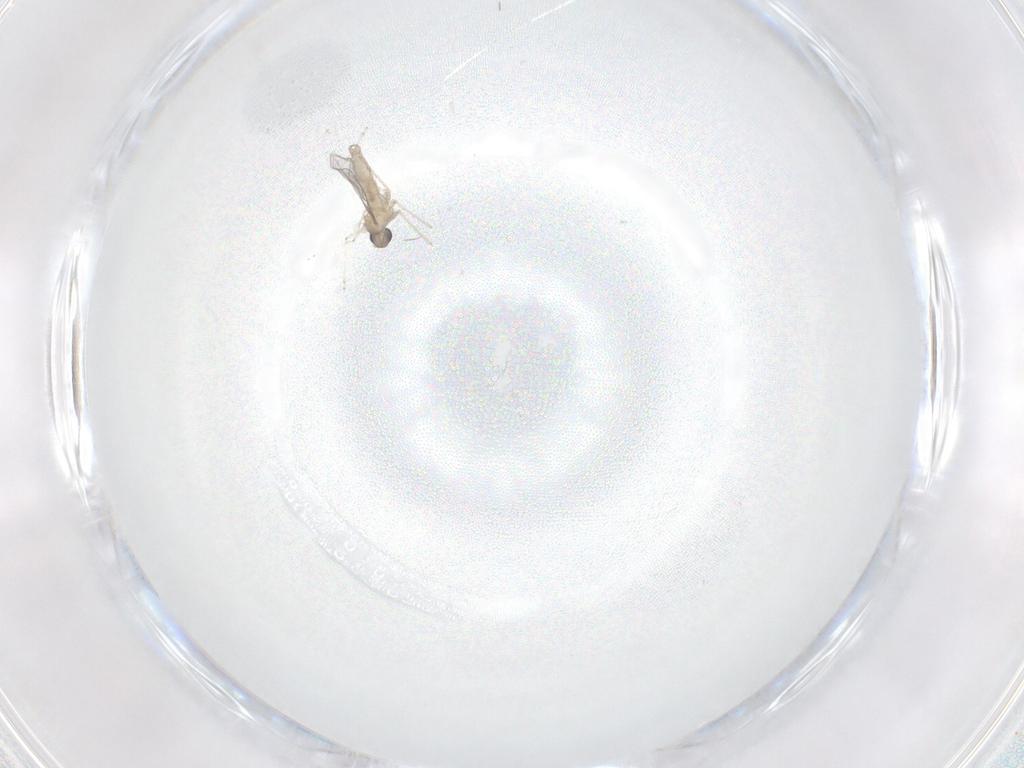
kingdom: Animalia
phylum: Arthropoda
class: Insecta
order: Diptera
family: Cecidomyiidae
